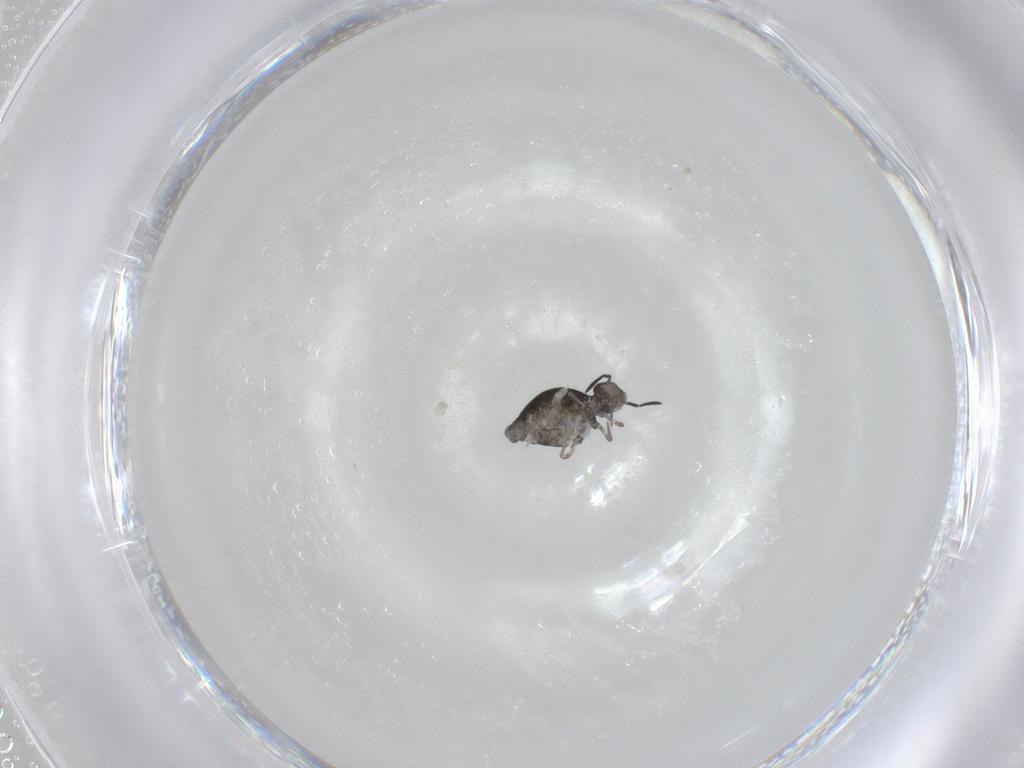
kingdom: Animalia
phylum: Arthropoda
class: Collembola
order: Symphypleona
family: Katiannidae
